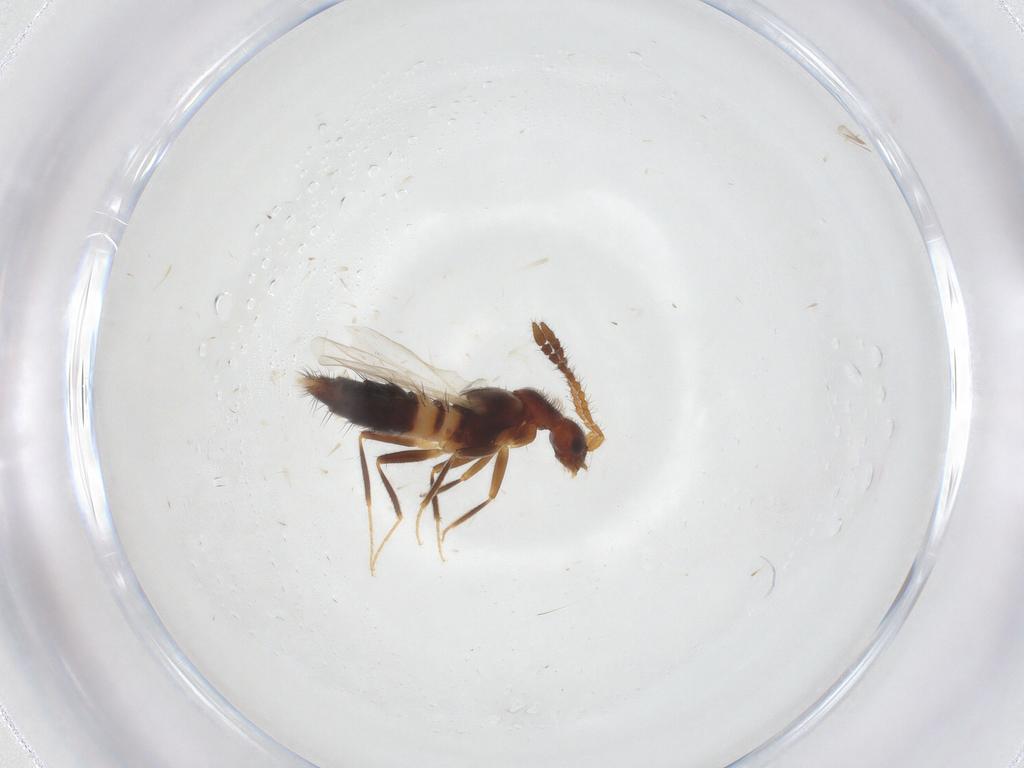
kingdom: Animalia
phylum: Arthropoda
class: Insecta
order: Coleoptera
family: Staphylinidae
